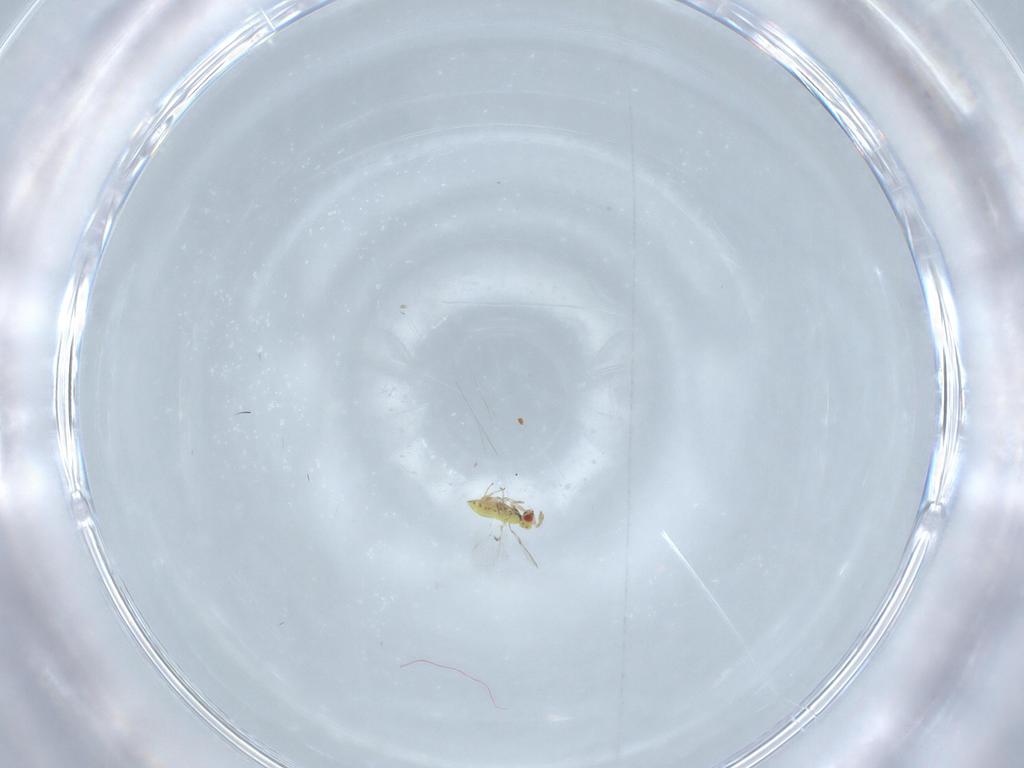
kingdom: Animalia
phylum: Arthropoda
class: Insecta
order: Hymenoptera
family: Trichogrammatidae
